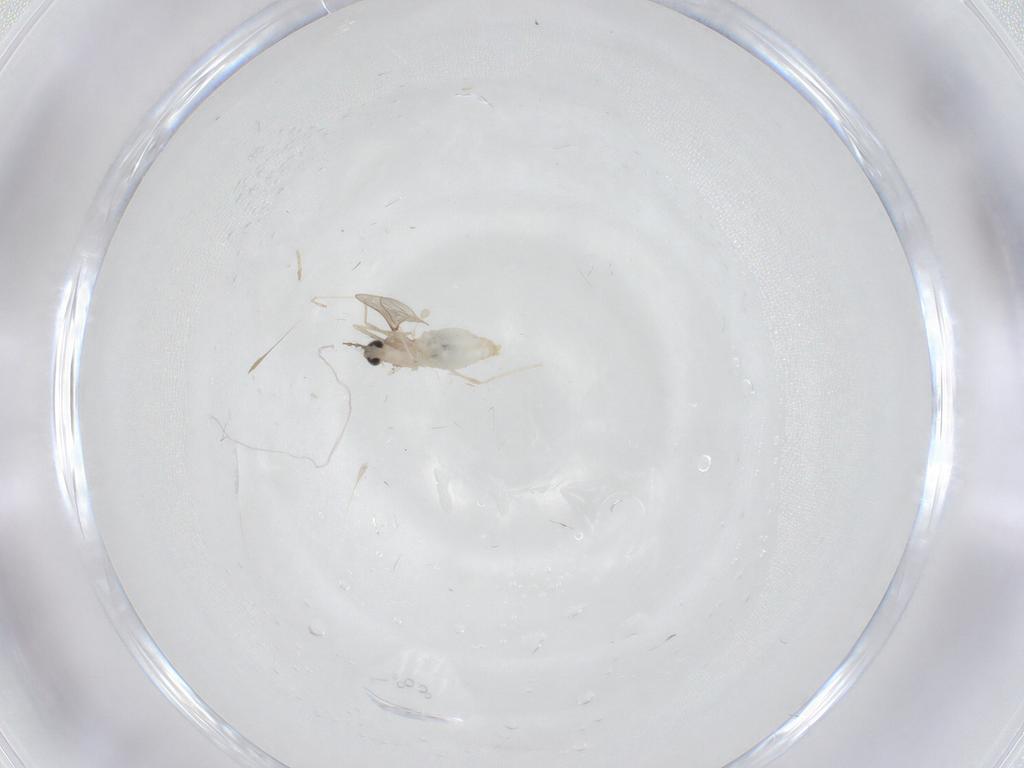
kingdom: Animalia
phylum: Arthropoda
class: Insecta
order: Diptera
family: Cecidomyiidae
